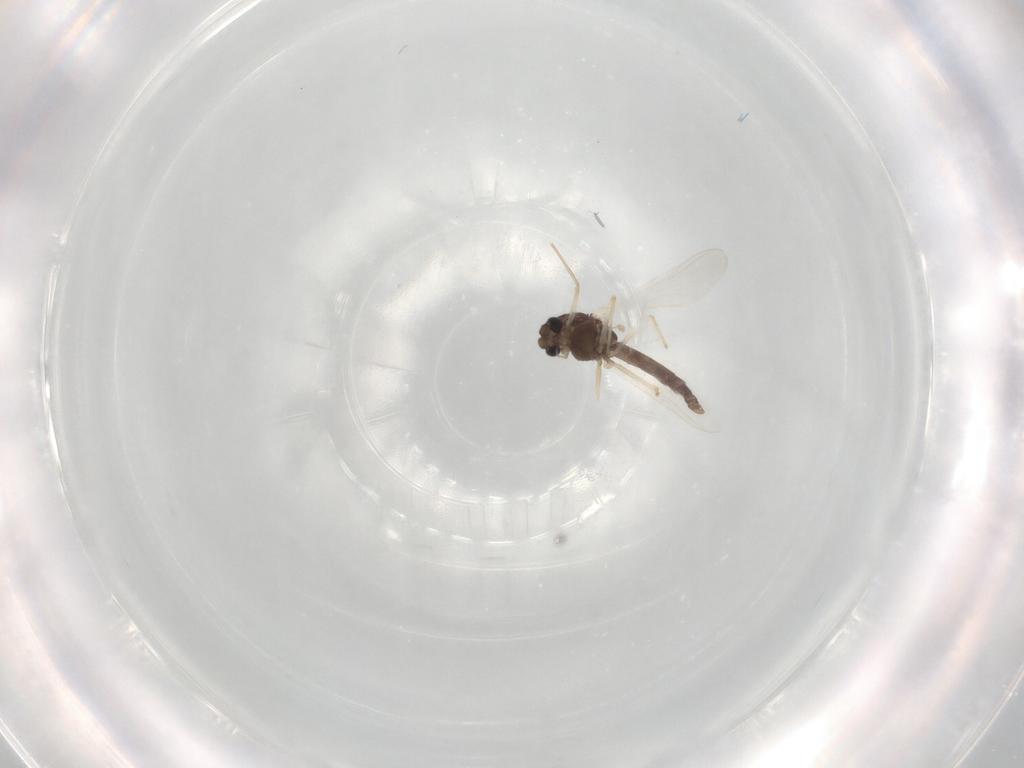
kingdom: Animalia
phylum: Arthropoda
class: Insecta
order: Diptera
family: Chironomidae
